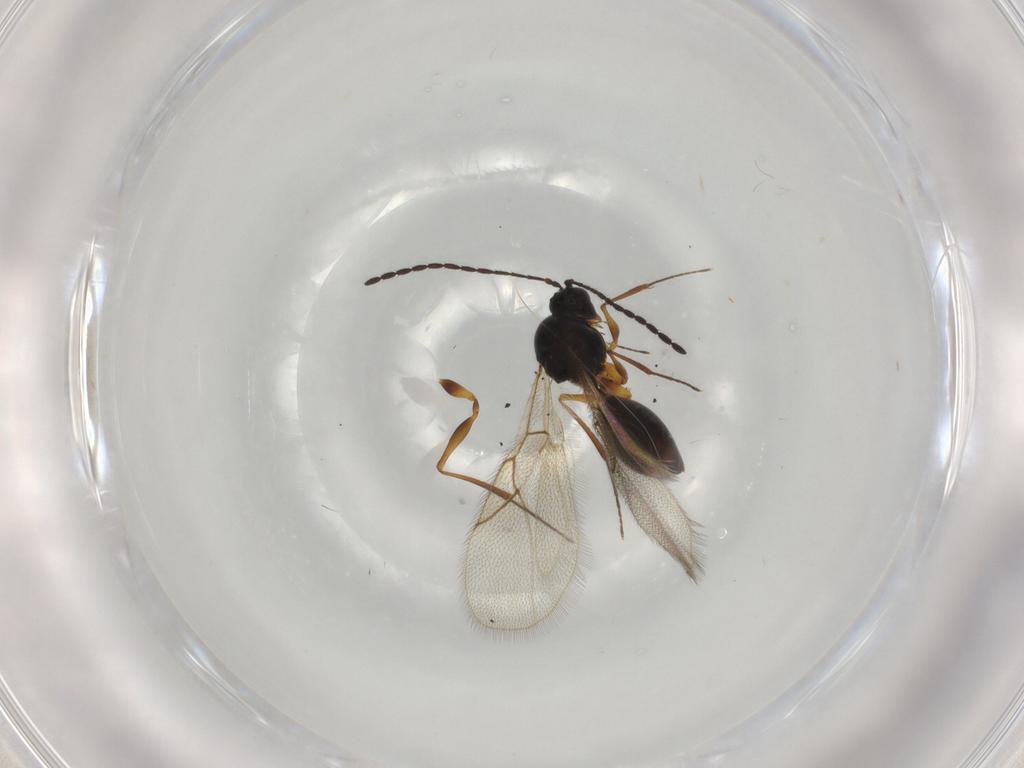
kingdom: Animalia
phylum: Arthropoda
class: Insecta
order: Hymenoptera
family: Figitidae
